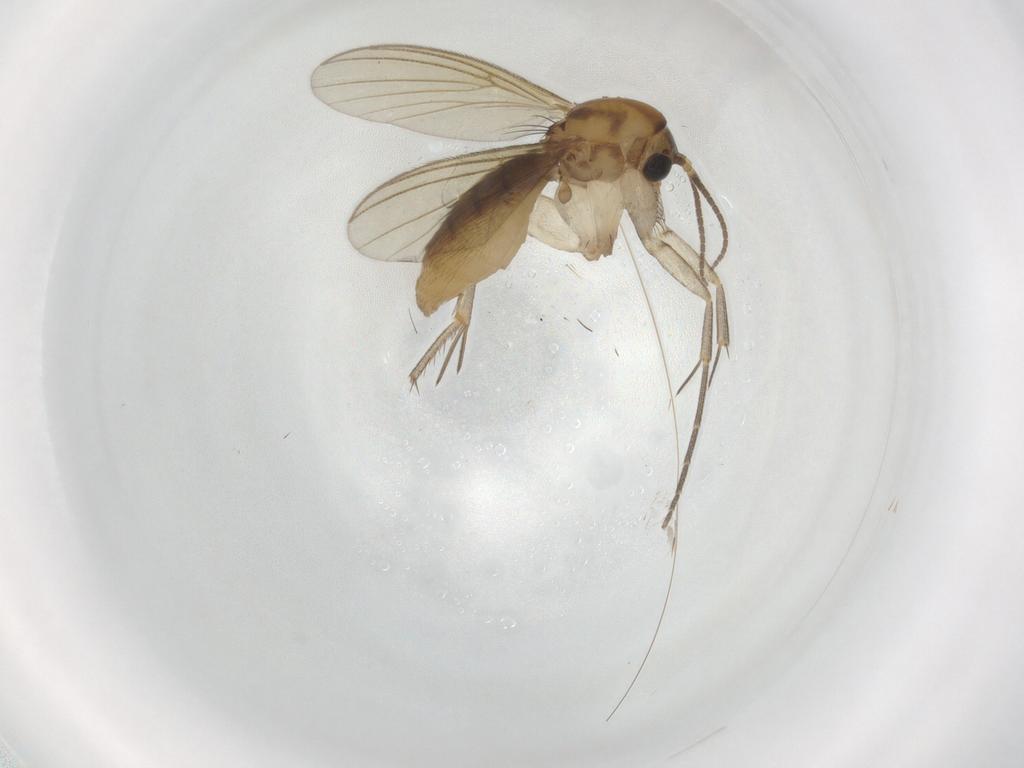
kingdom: Animalia
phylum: Arthropoda
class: Insecta
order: Diptera
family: Mycetophilidae
